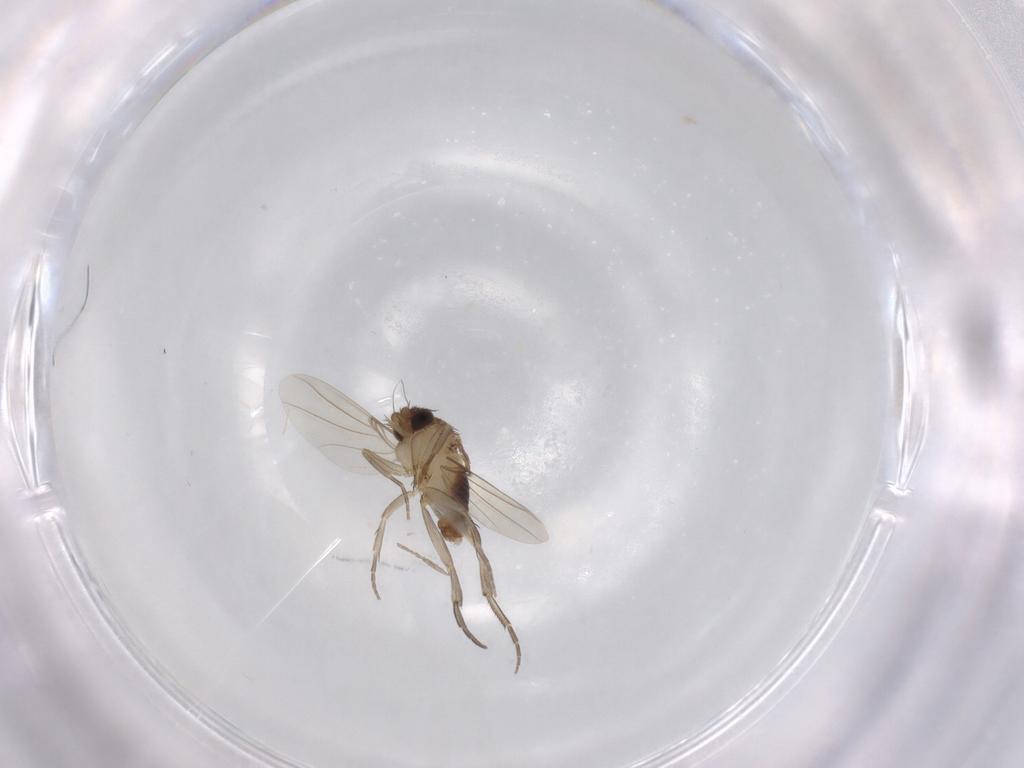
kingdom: Animalia
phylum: Arthropoda
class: Insecta
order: Diptera
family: Phoridae
